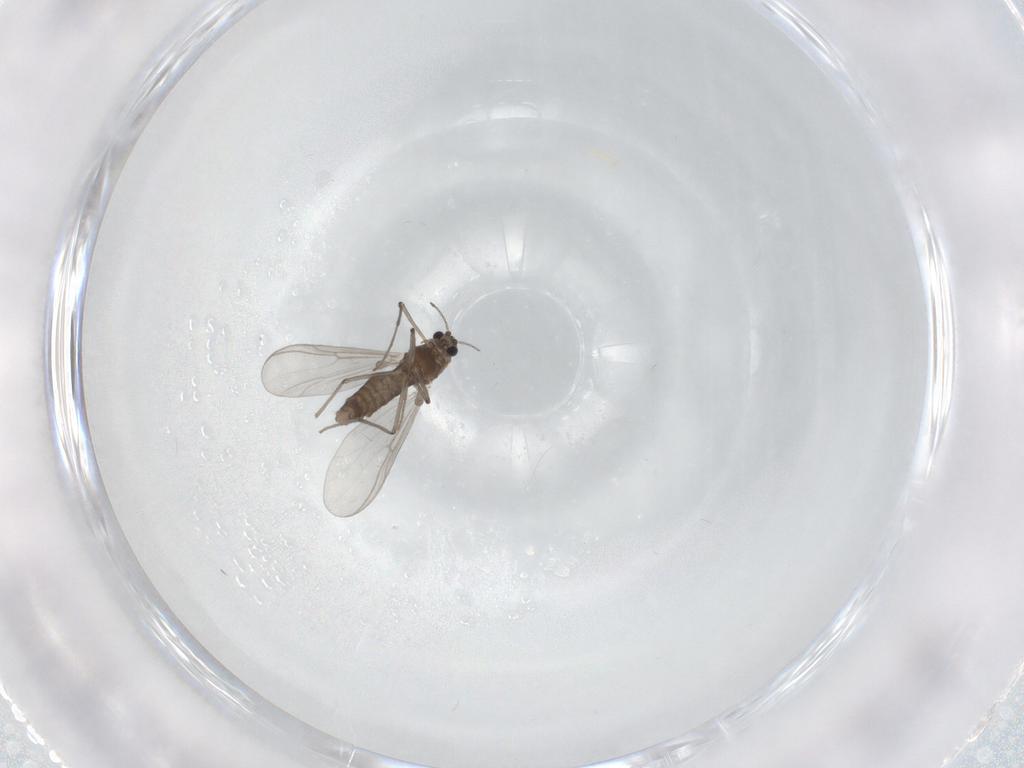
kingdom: Animalia
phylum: Arthropoda
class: Insecta
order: Diptera
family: Chironomidae
